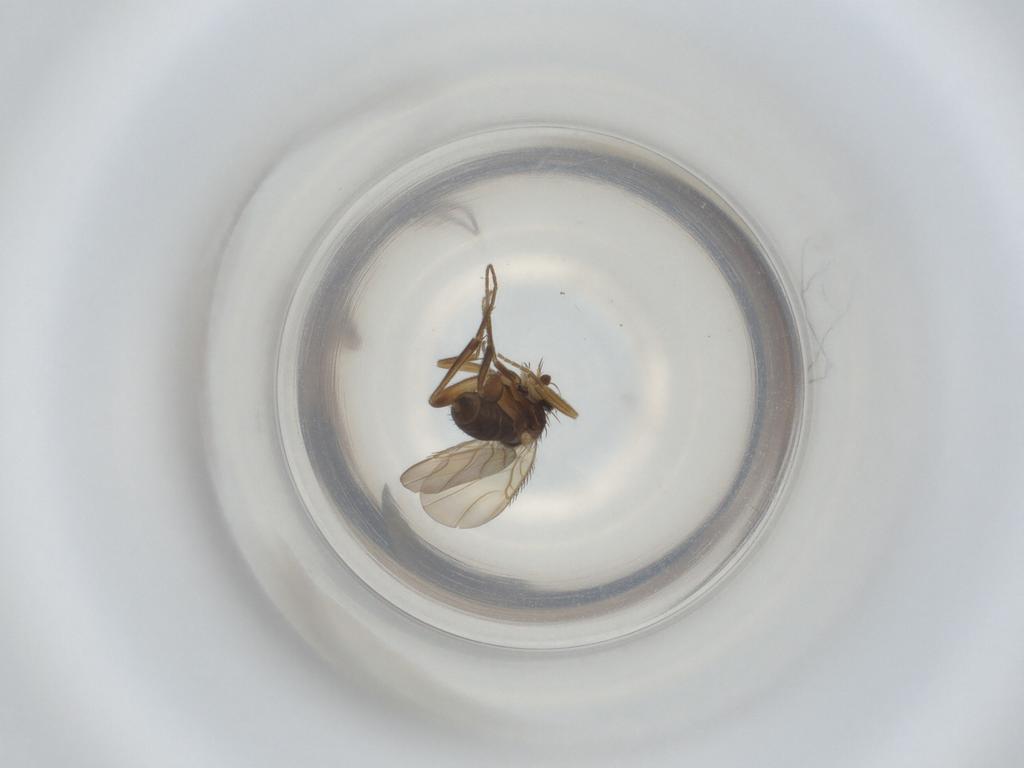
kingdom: Animalia
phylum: Arthropoda
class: Insecta
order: Diptera
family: Phoridae
